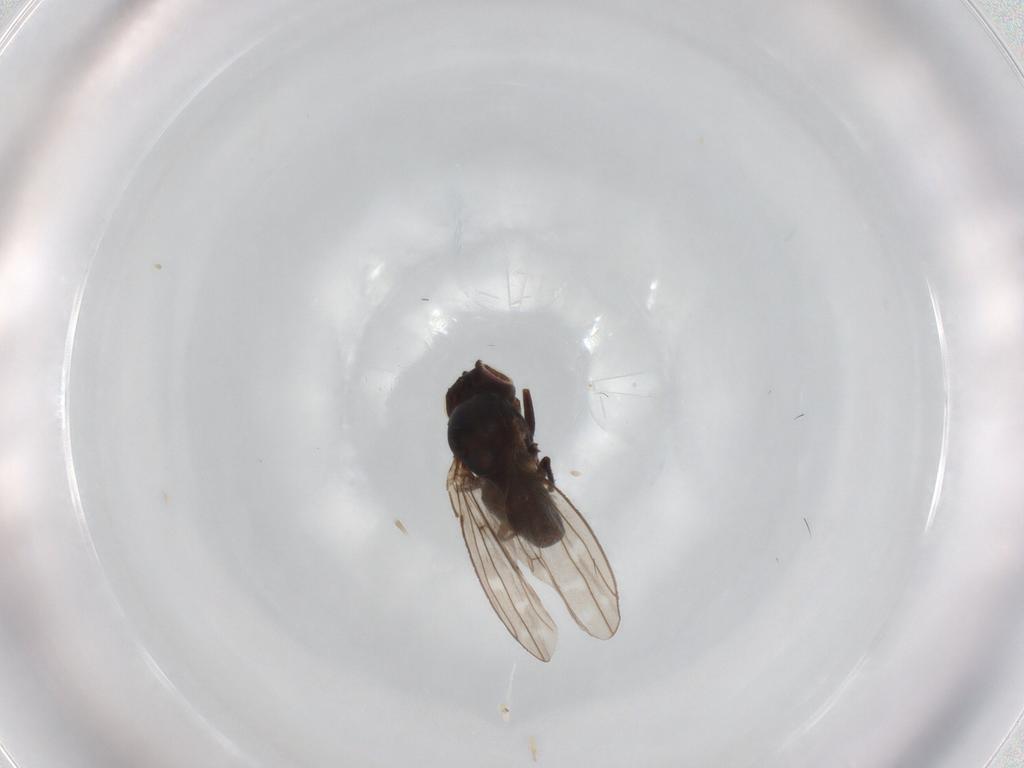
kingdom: Animalia
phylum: Arthropoda
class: Insecta
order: Diptera
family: Ephydridae
